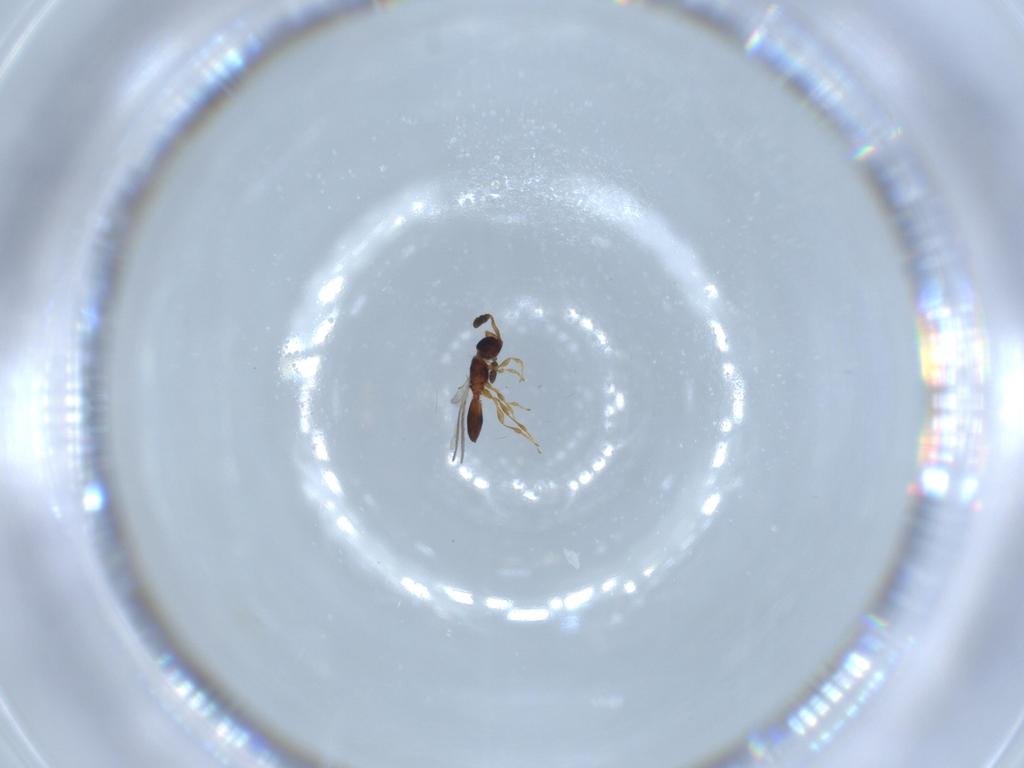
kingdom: Animalia
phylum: Arthropoda
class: Insecta
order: Hymenoptera
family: Diapriidae
